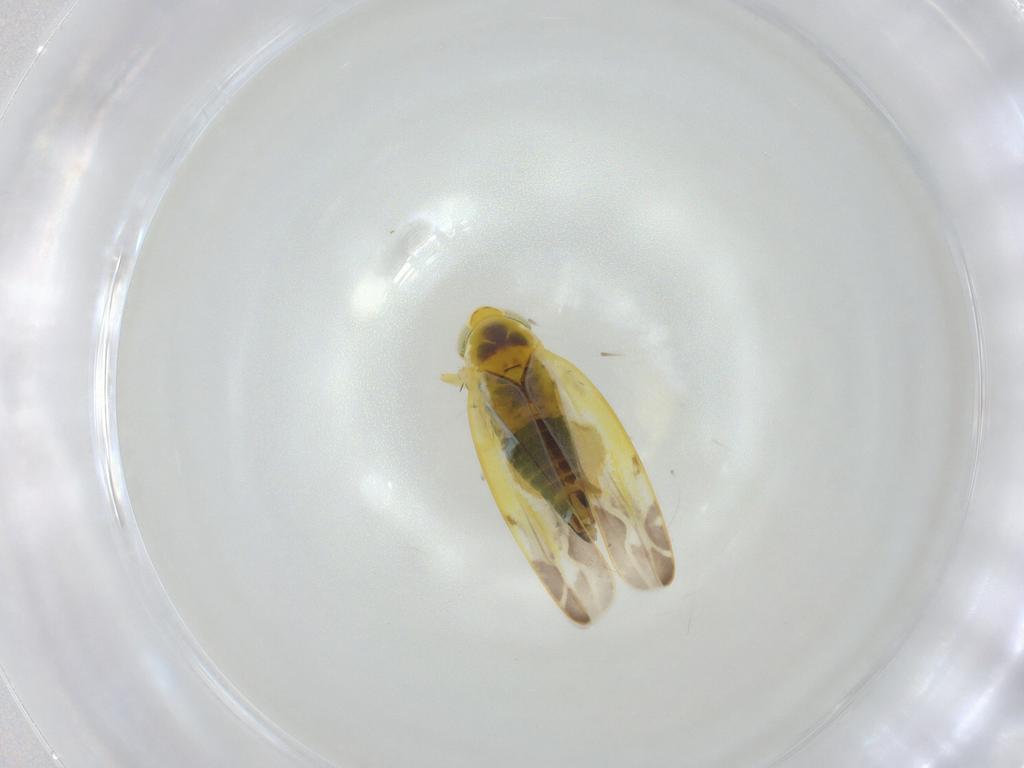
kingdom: Animalia
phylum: Arthropoda
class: Insecta
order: Hemiptera
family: Cicadellidae
